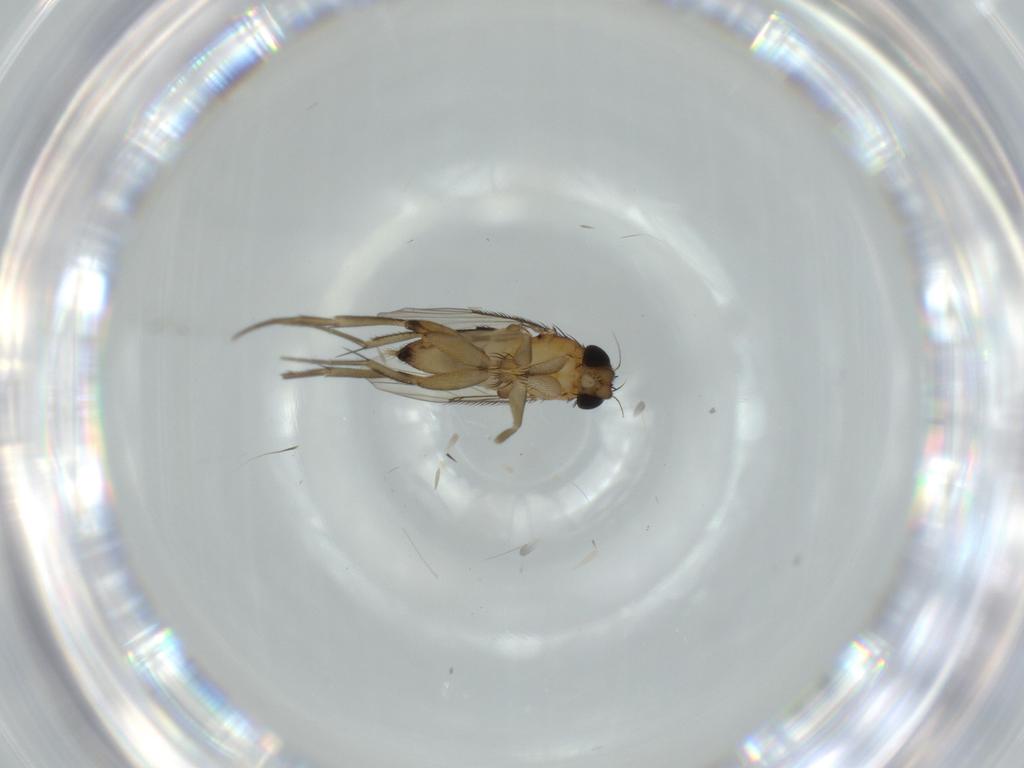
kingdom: Animalia
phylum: Arthropoda
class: Insecta
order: Diptera
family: Phoridae
